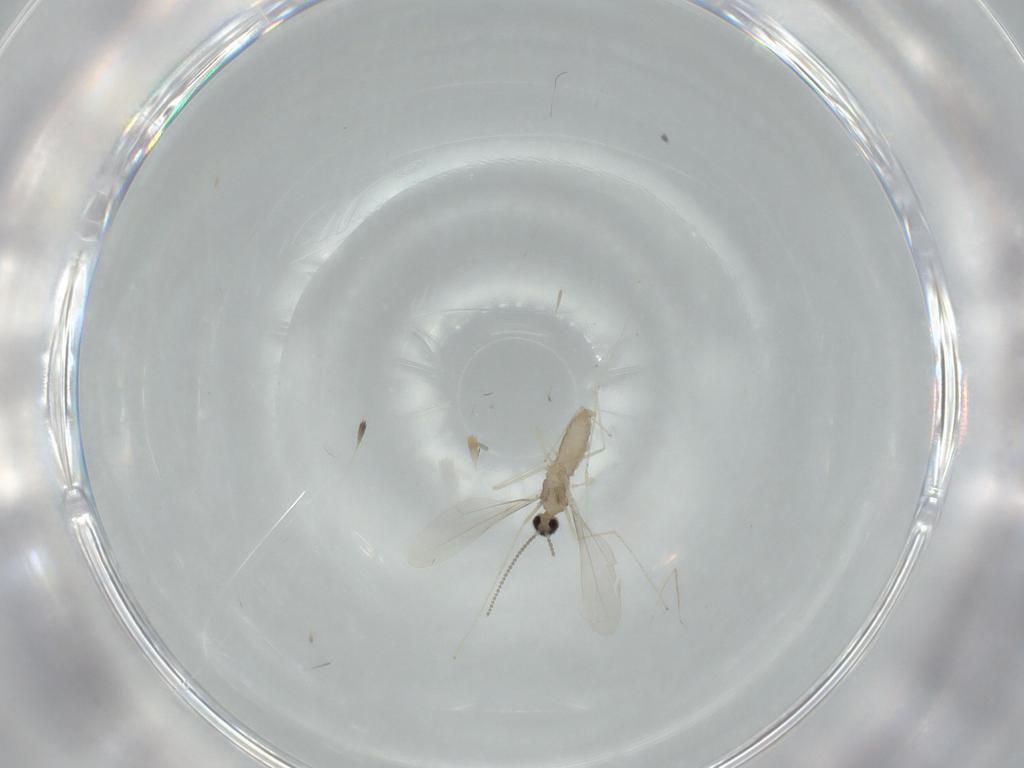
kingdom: Animalia
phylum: Arthropoda
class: Insecta
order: Diptera
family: Cecidomyiidae
